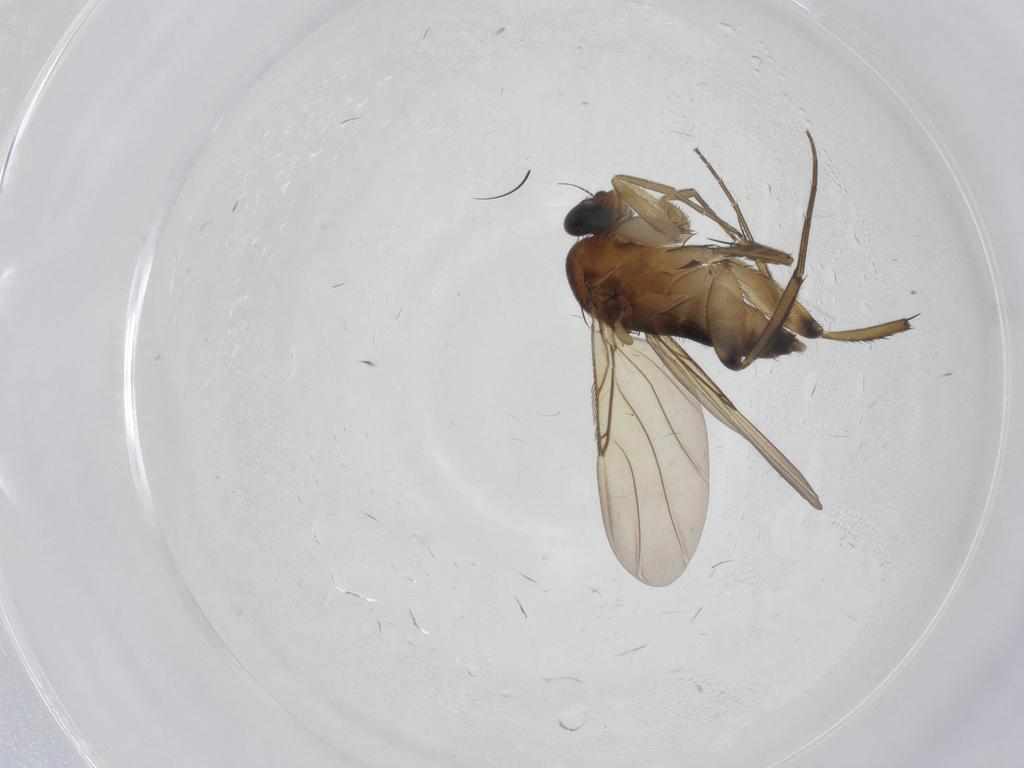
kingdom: Animalia
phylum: Arthropoda
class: Insecta
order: Diptera
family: Phoridae
